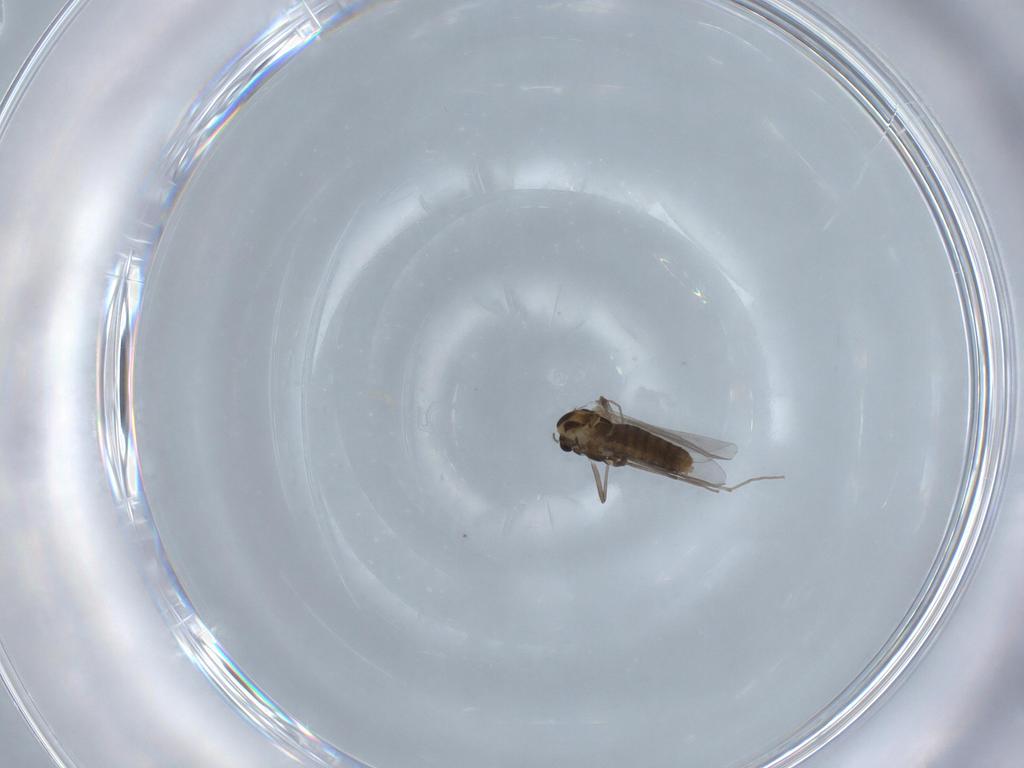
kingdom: Animalia
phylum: Arthropoda
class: Insecta
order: Diptera
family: Chironomidae
